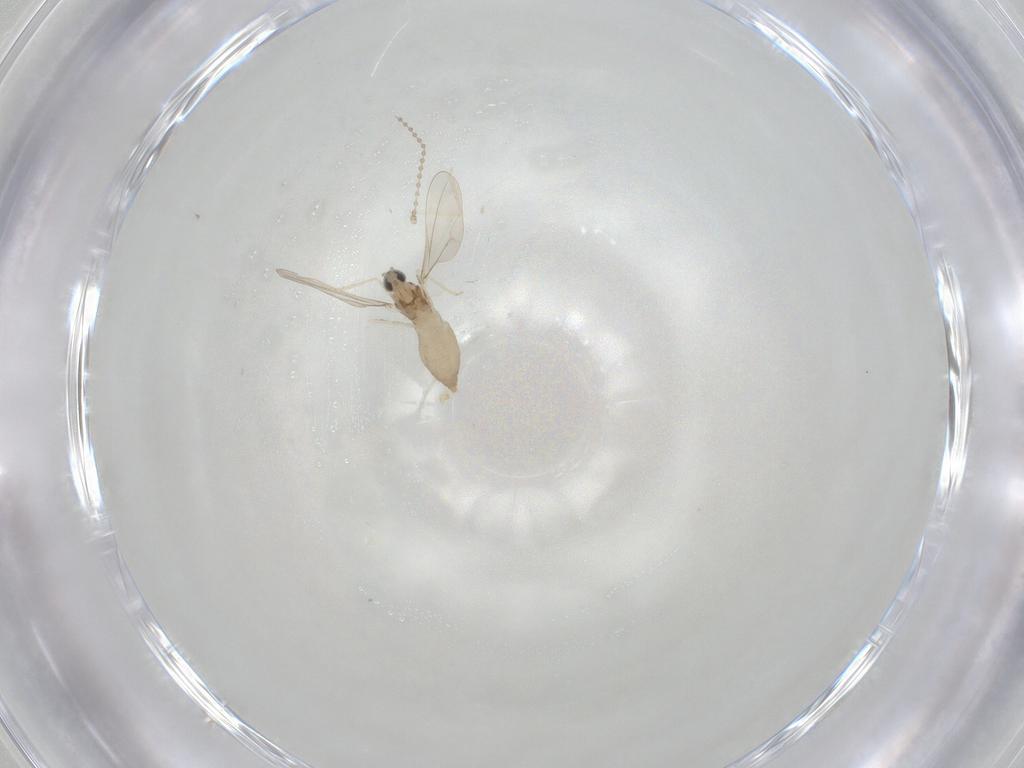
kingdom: Animalia
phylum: Arthropoda
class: Insecta
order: Diptera
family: Cecidomyiidae
